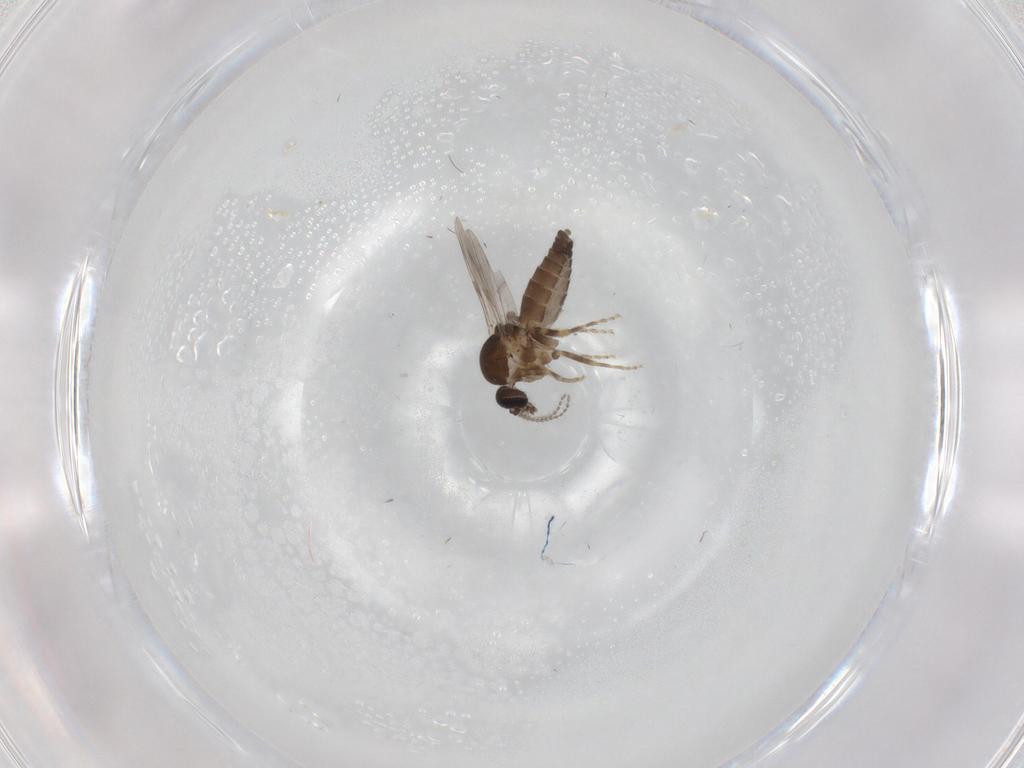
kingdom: Animalia
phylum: Arthropoda
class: Insecta
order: Diptera
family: Ceratopogonidae
